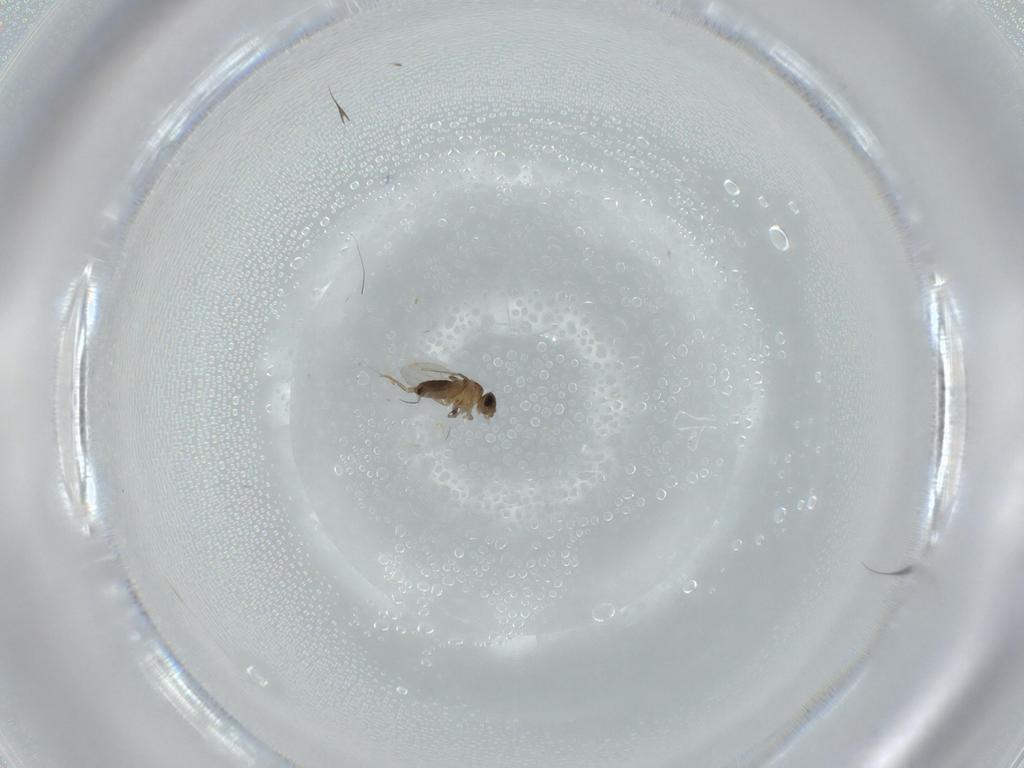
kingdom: Animalia
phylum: Arthropoda
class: Insecta
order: Diptera
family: Phoridae
